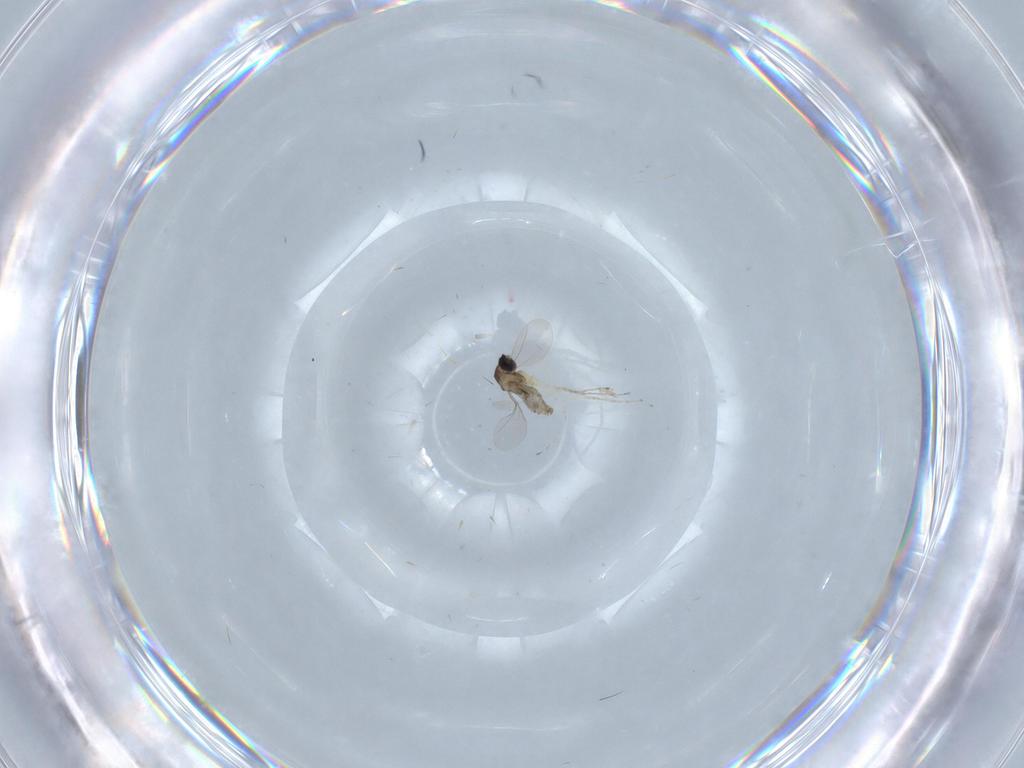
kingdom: Animalia
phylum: Arthropoda
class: Insecta
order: Diptera
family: Cecidomyiidae
